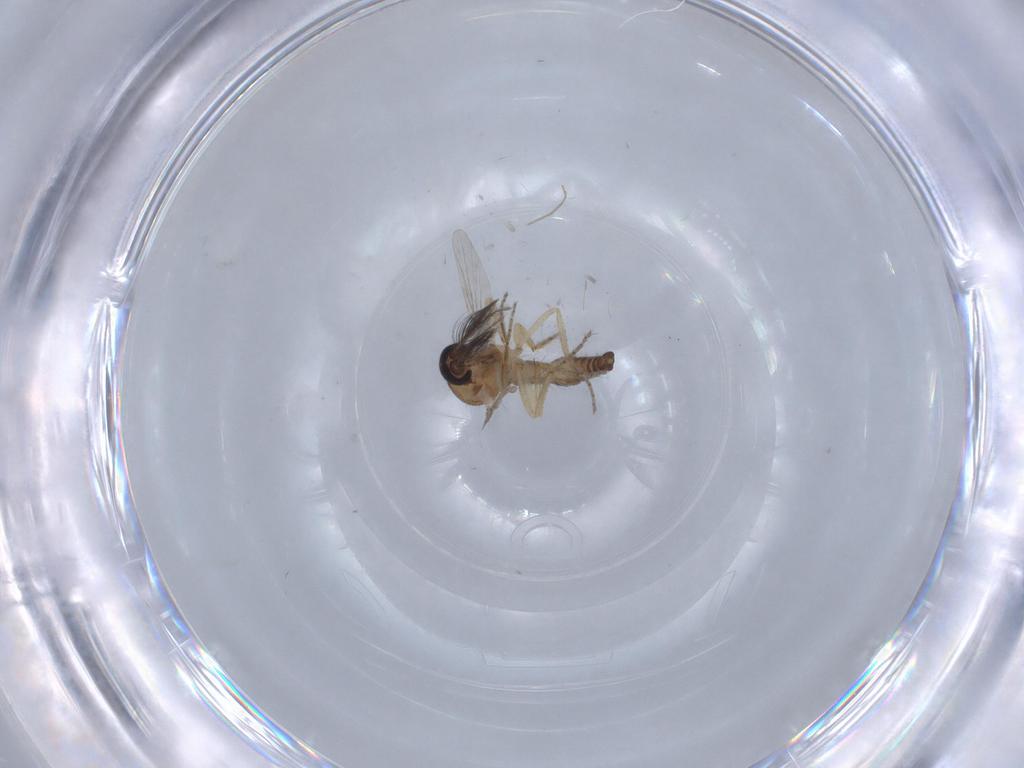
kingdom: Animalia
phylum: Arthropoda
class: Insecta
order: Diptera
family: Ceratopogonidae
